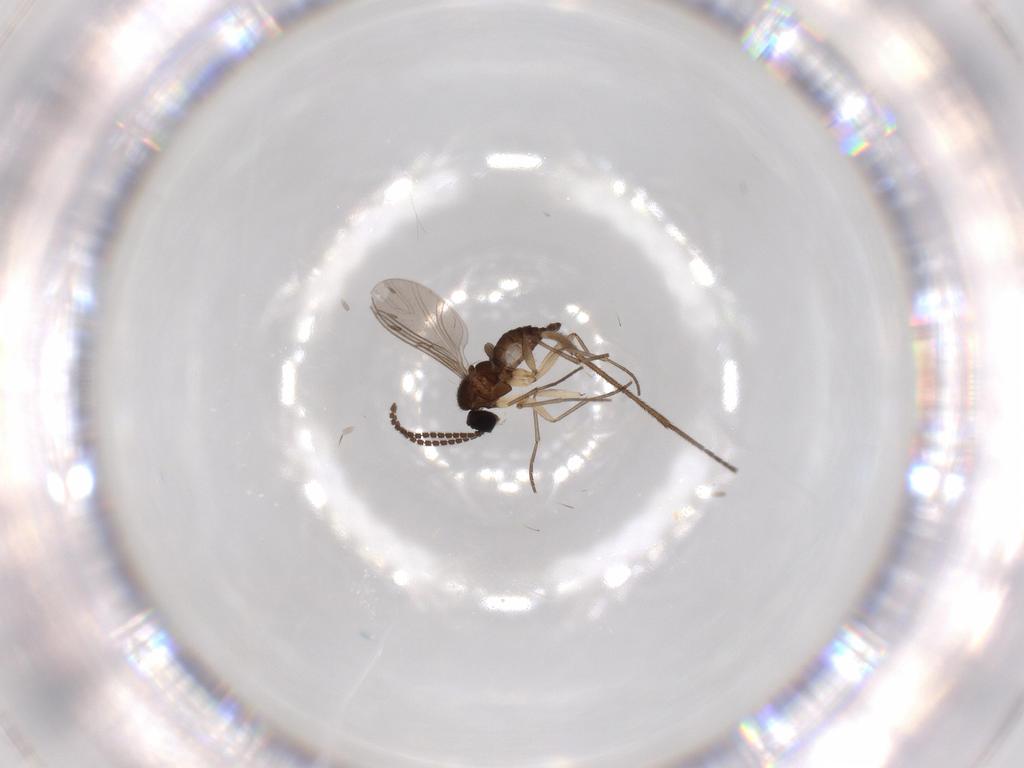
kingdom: Animalia
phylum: Arthropoda
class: Insecta
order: Diptera
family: Sciaridae
